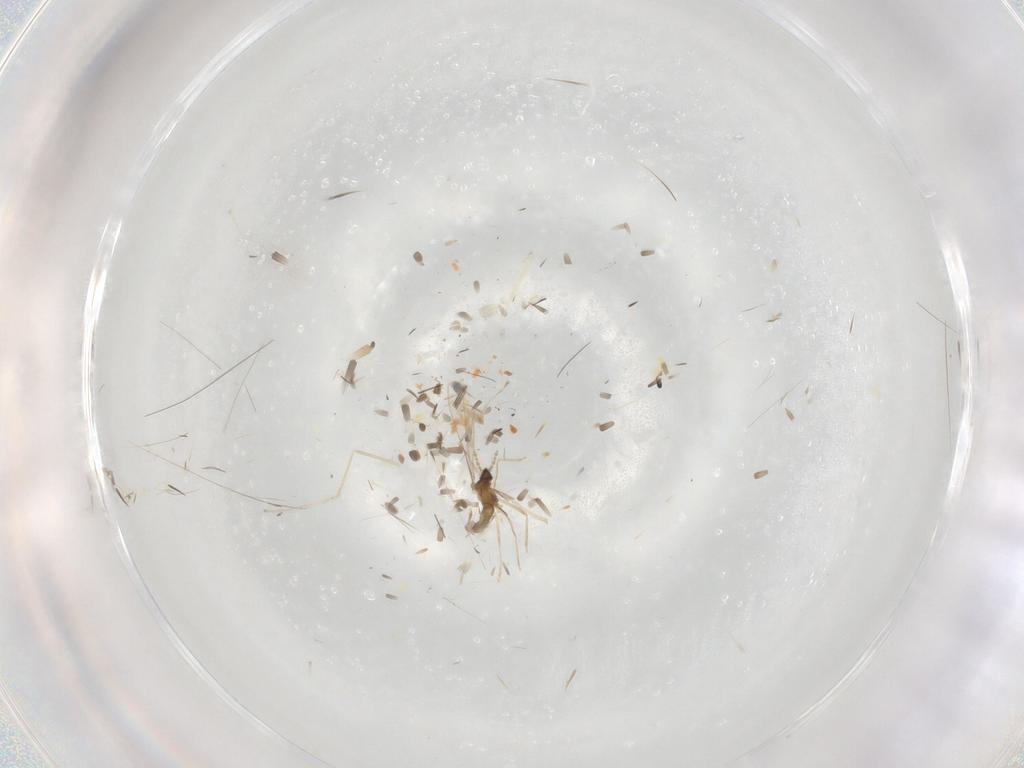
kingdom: Animalia
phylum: Arthropoda
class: Insecta
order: Diptera
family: Cecidomyiidae
